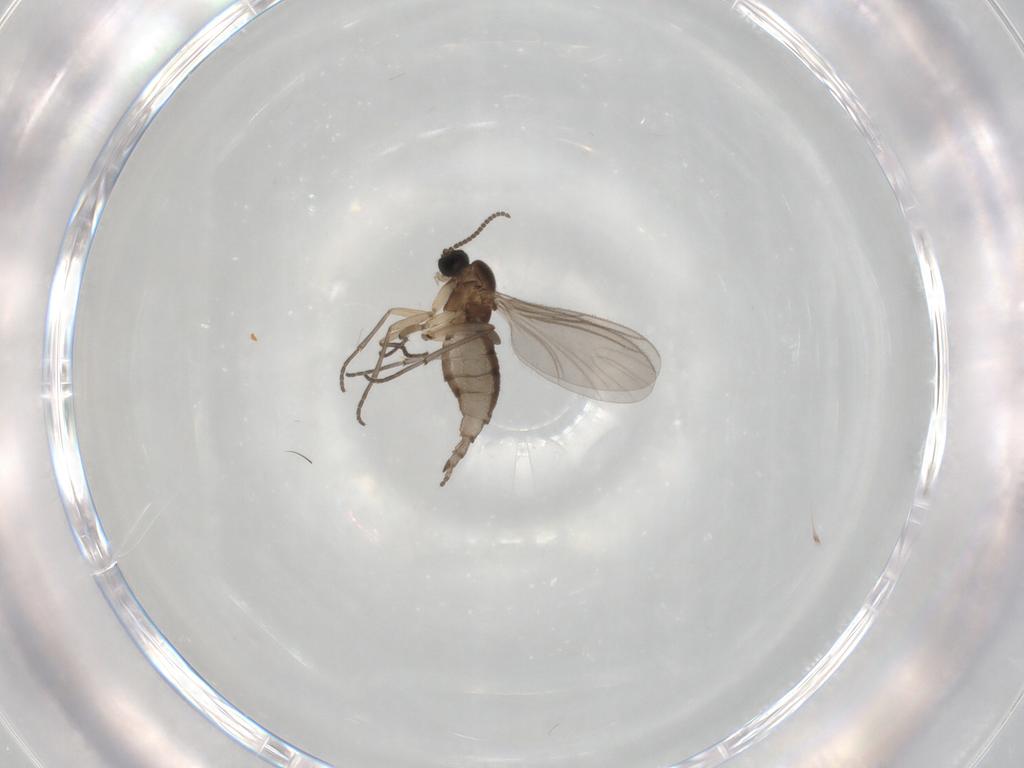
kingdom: Animalia
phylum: Arthropoda
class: Insecta
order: Diptera
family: Sciaridae
